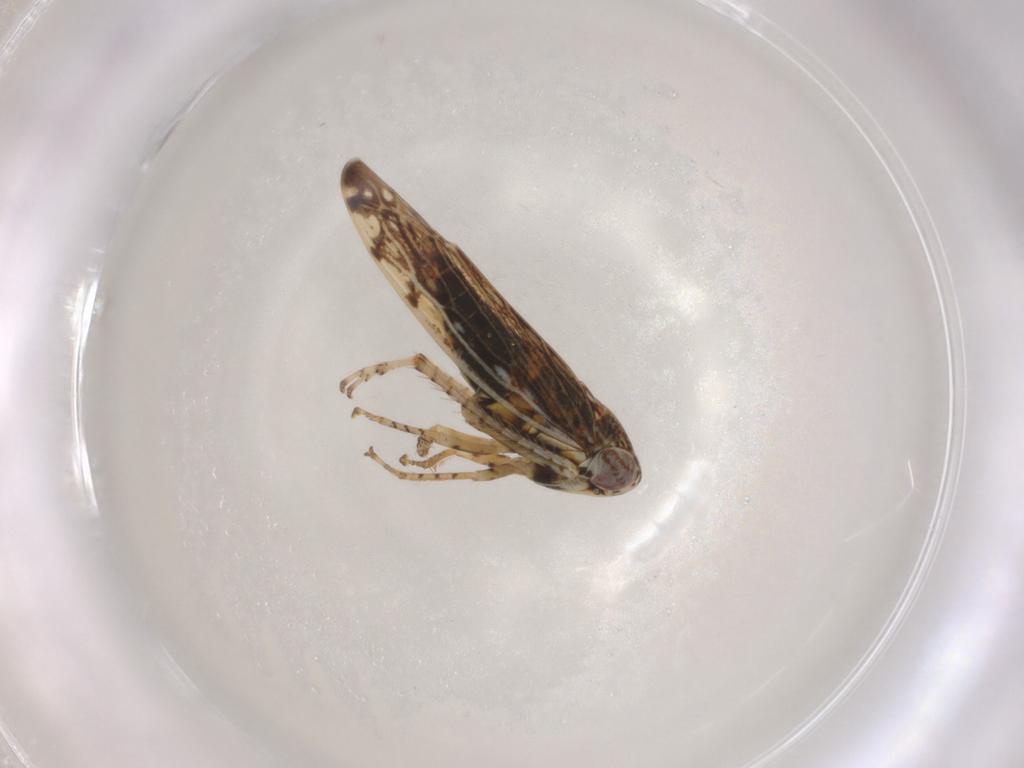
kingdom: Animalia
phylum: Arthropoda
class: Insecta
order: Hemiptera
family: Cicadellidae
